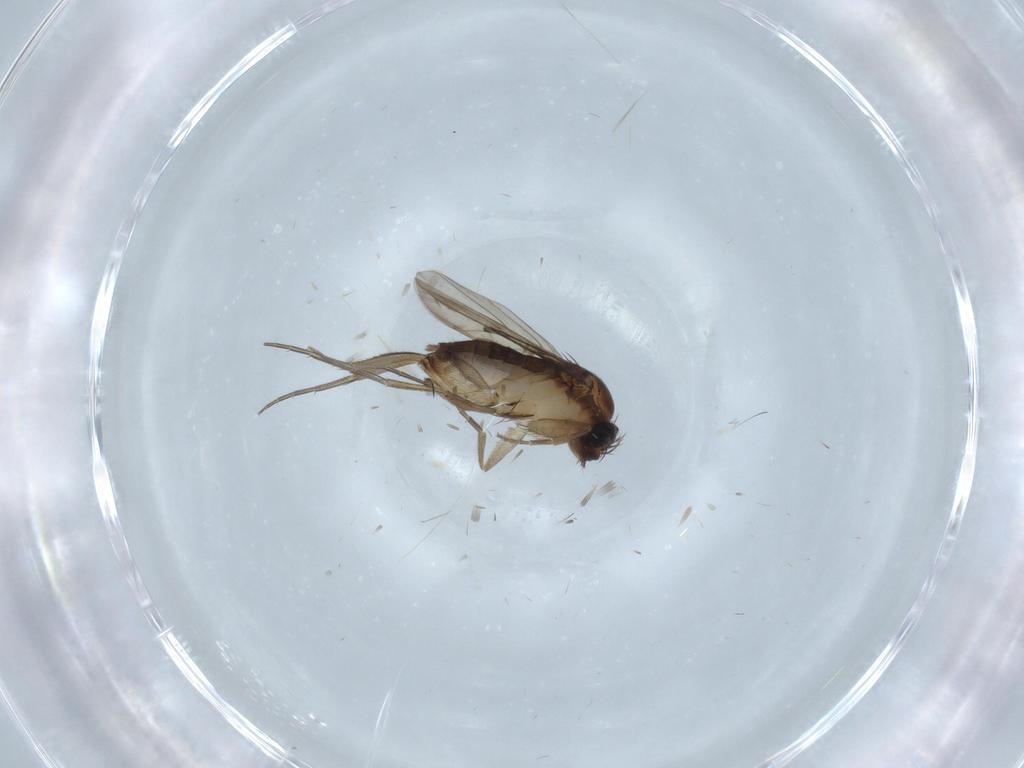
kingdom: Animalia
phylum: Arthropoda
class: Insecta
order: Diptera
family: Phoridae
